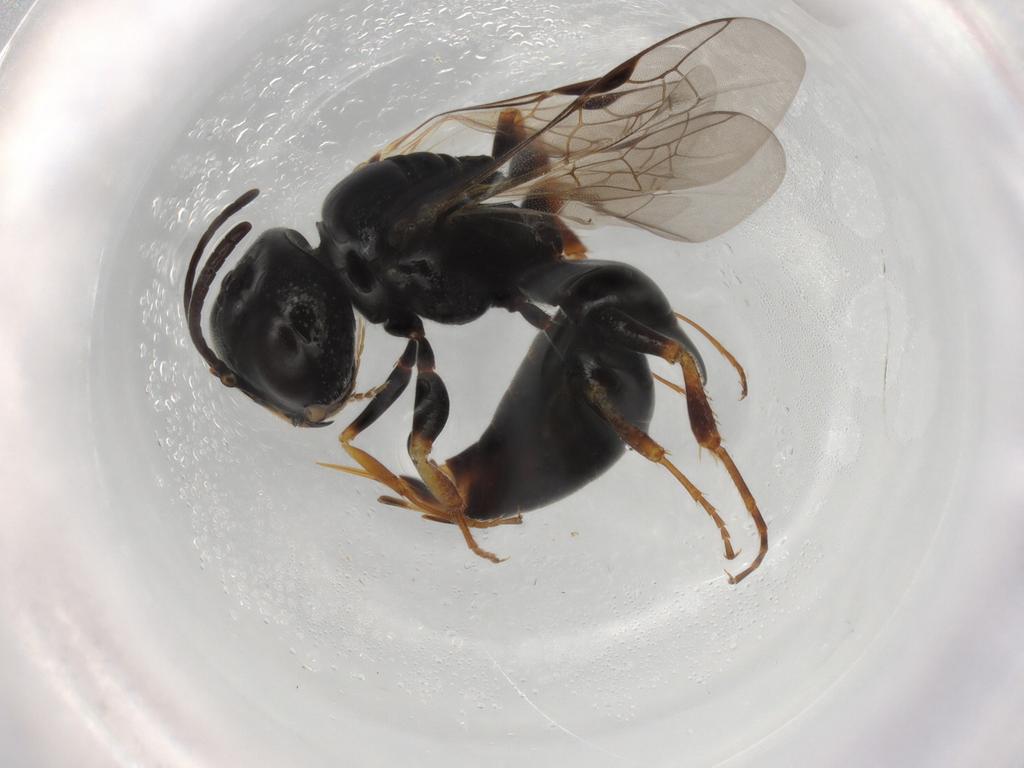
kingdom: Animalia
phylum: Arthropoda
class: Insecta
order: Hymenoptera
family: Crabronidae
